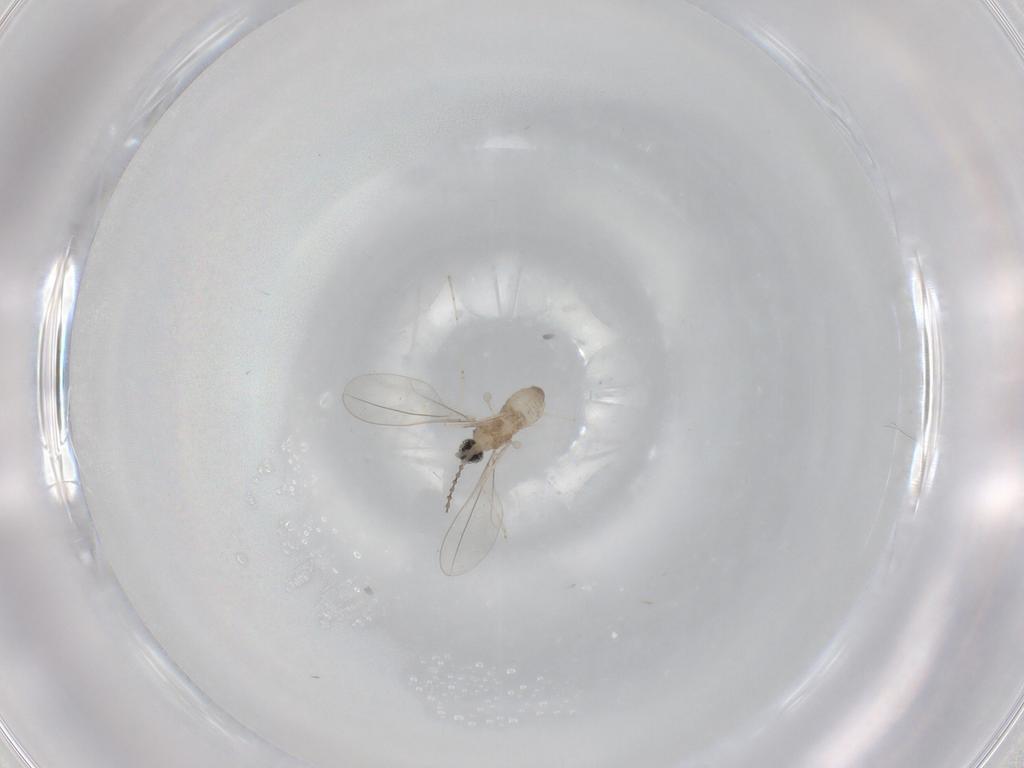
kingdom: Animalia
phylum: Arthropoda
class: Insecta
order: Diptera
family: Cecidomyiidae
